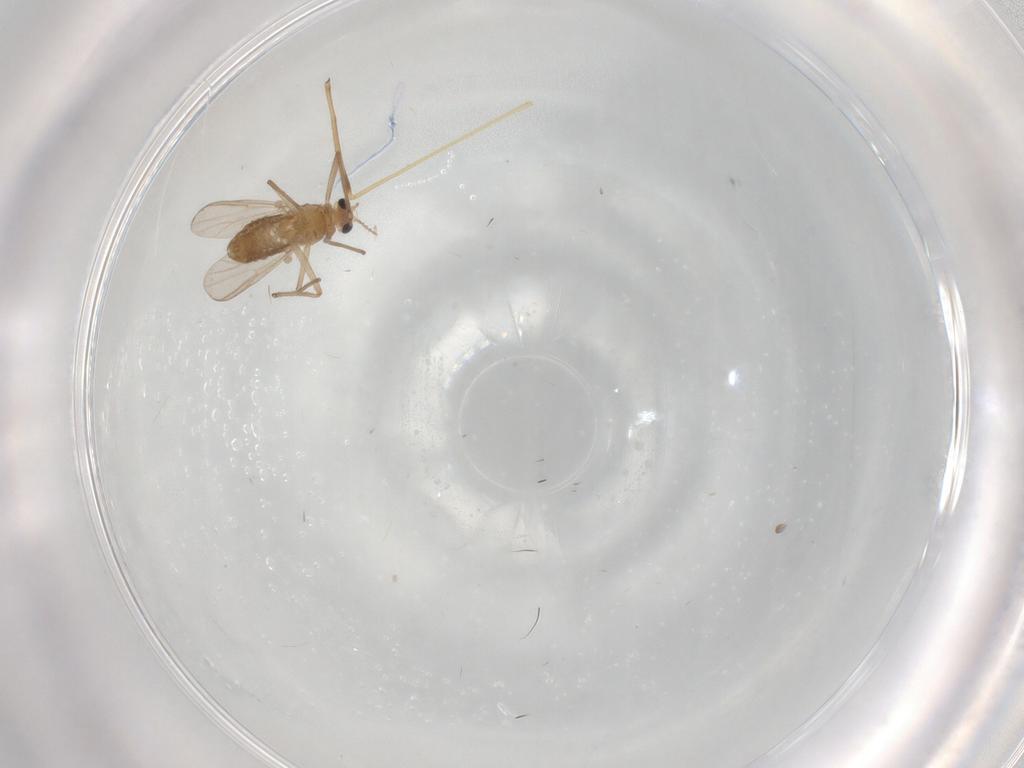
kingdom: Animalia
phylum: Arthropoda
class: Insecta
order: Diptera
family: Chironomidae
